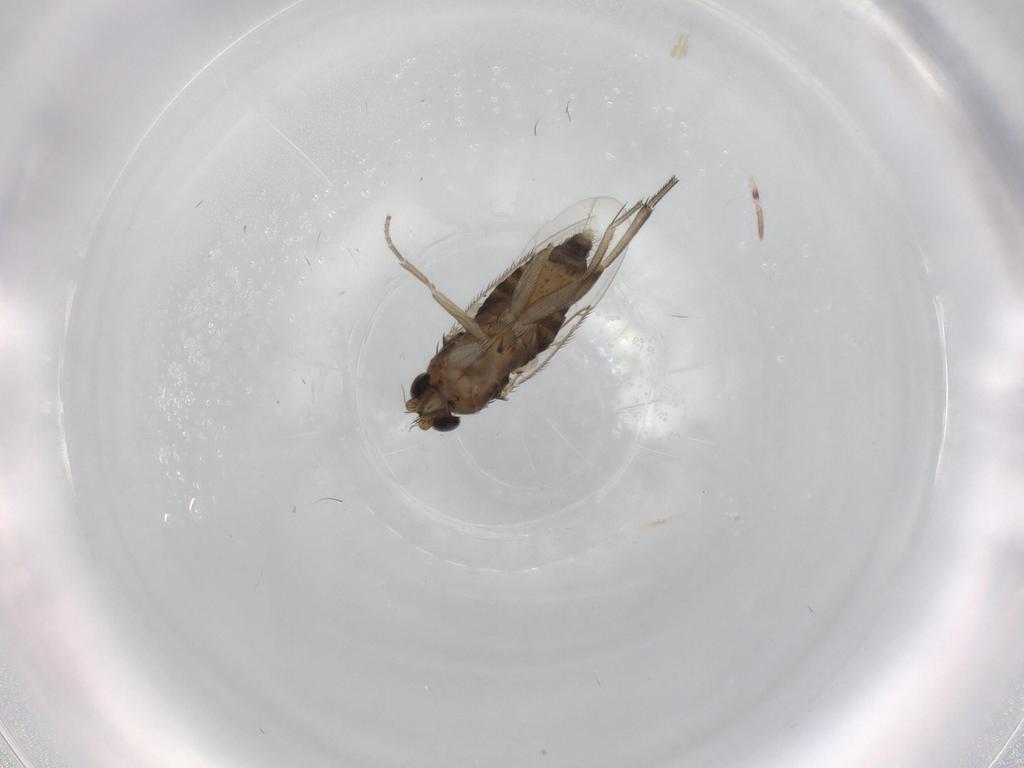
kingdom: Animalia
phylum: Arthropoda
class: Insecta
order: Diptera
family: Phoridae
